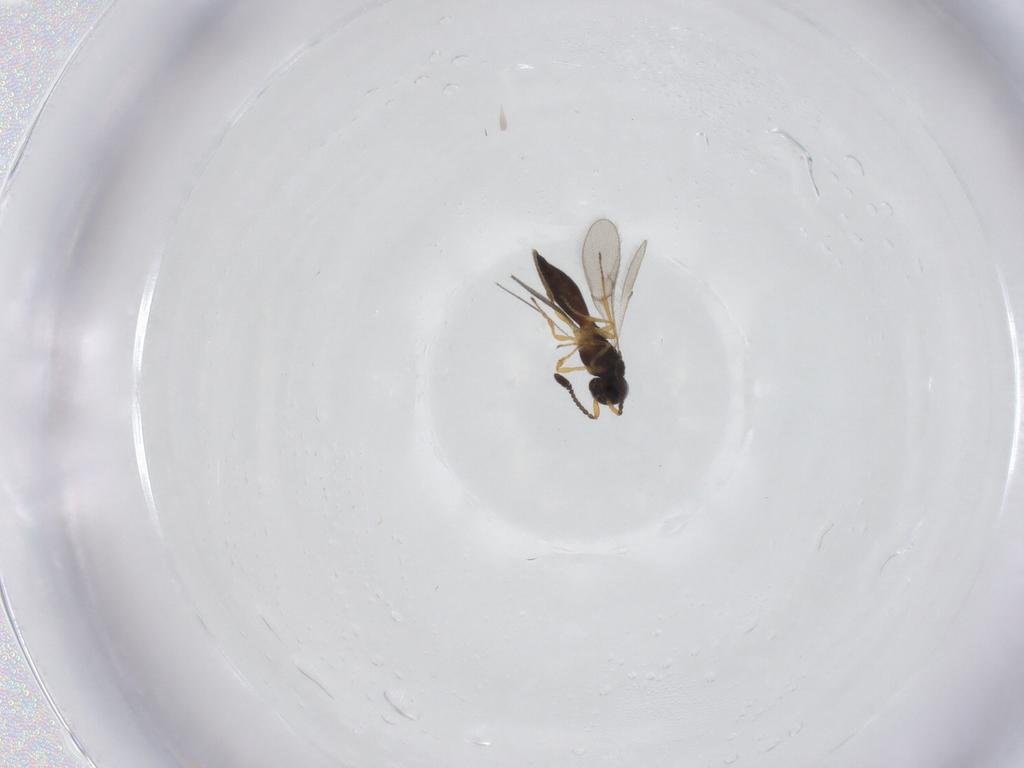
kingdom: Animalia
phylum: Arthropoda
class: Insecta
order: Hymenoptera
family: Scelionidae
